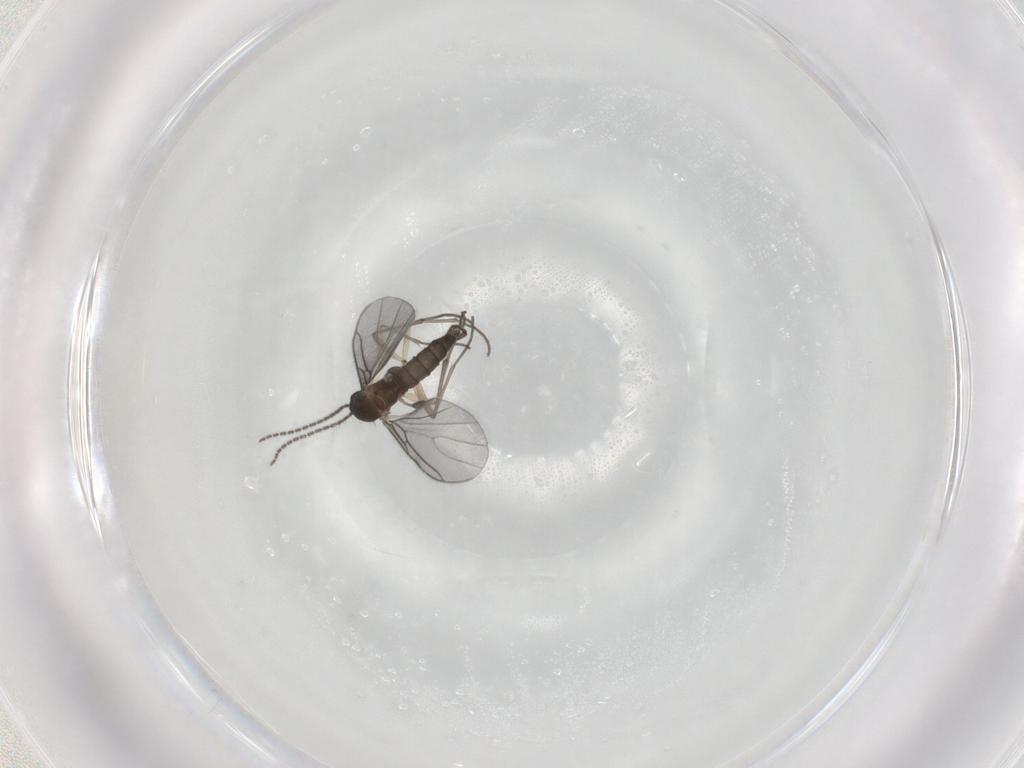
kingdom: Animalia
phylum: Arthropoda
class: Insecta
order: Diptera
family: Sciaridae
